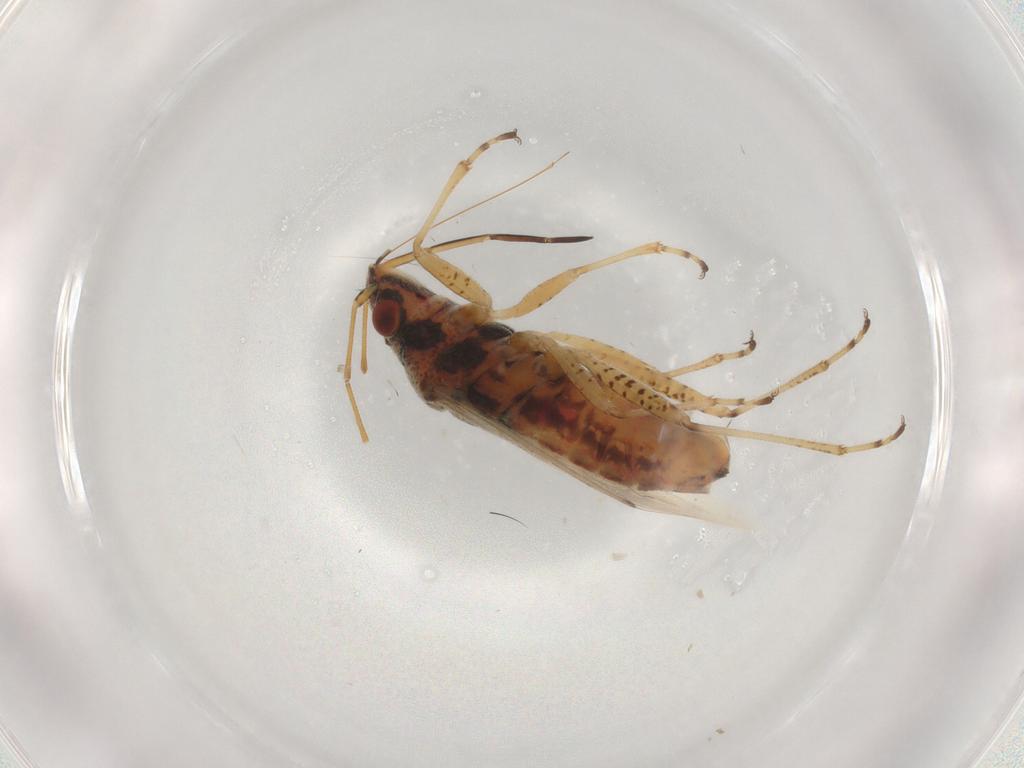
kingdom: Animalia
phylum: Arthropoda
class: Insecta
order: Hemiptera
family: Lygaeidae
